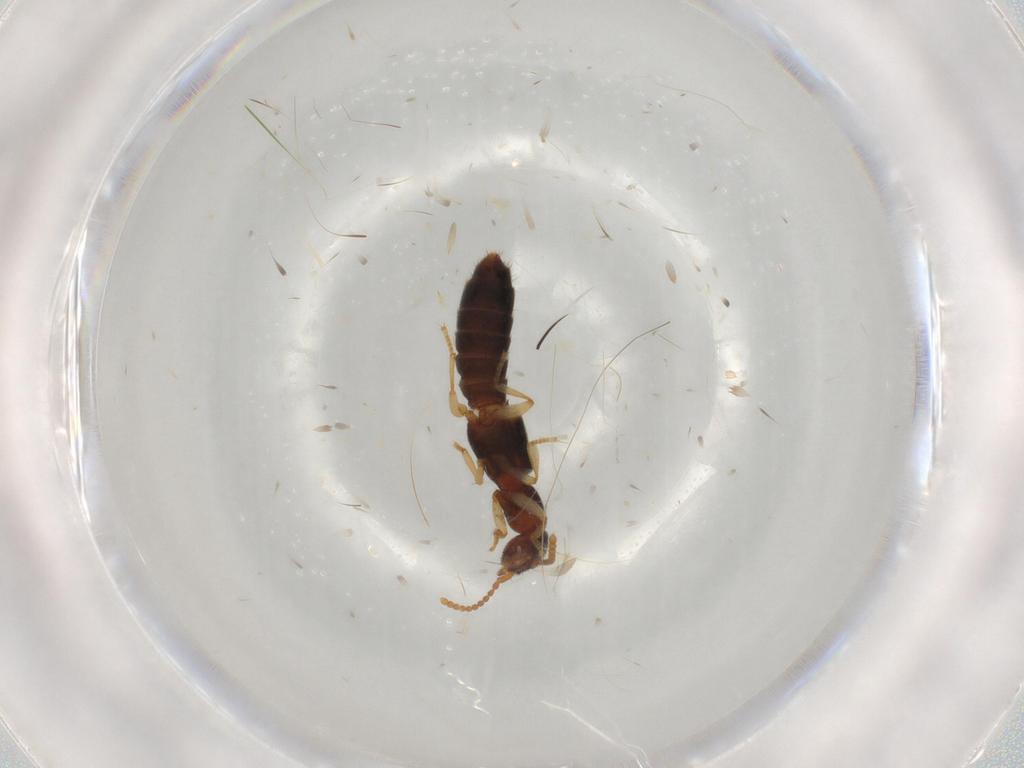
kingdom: Animalia
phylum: Arthropoda
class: Insecta
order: Coleoptera
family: Staphylinidae
